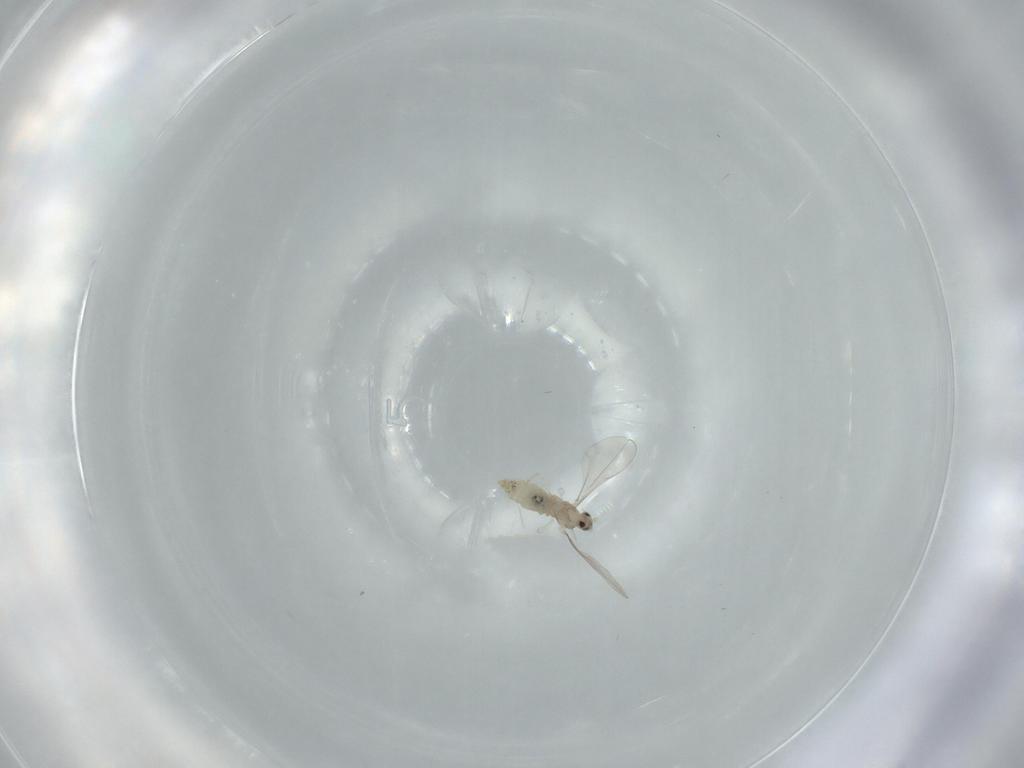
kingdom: Animalia
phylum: Arthropoda
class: Insecta
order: Diptera
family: Cecidomyiidae
